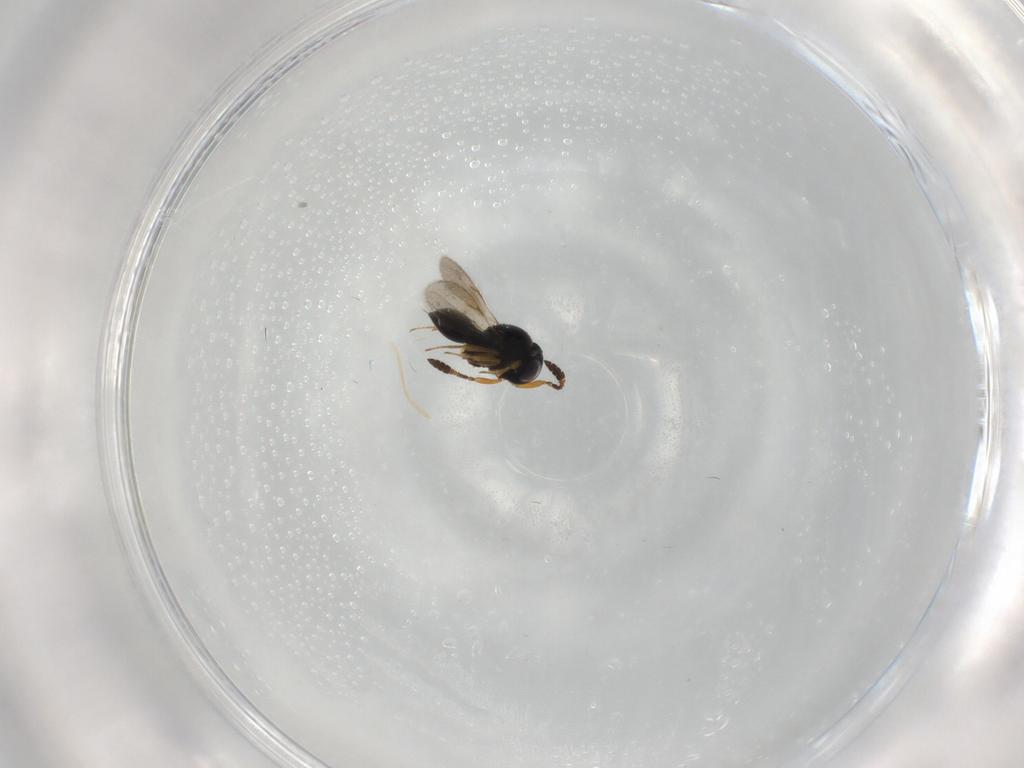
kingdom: Animalia
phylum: Arthropoda
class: Insecta
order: Hymenoptera
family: Scelionidae
